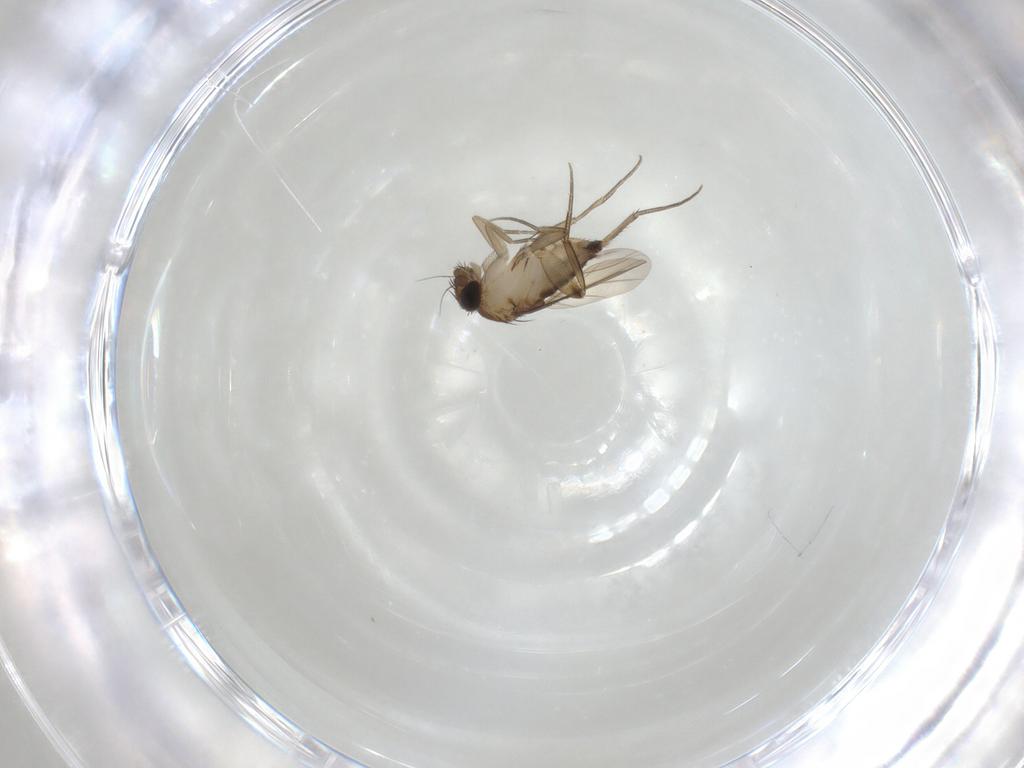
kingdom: Animalia
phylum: Arthropoda
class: Insecta
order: Diptera
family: Phoridae
